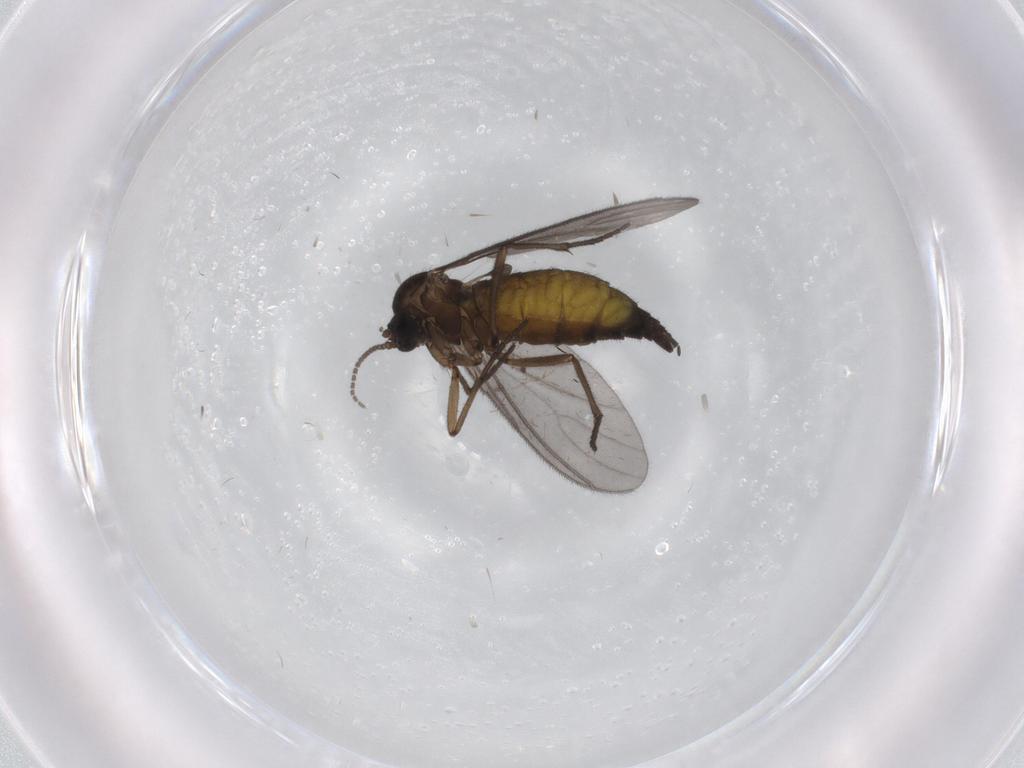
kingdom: Animalia
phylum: Arthropoda
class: Insecta
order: Diptera
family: Sciaridae
